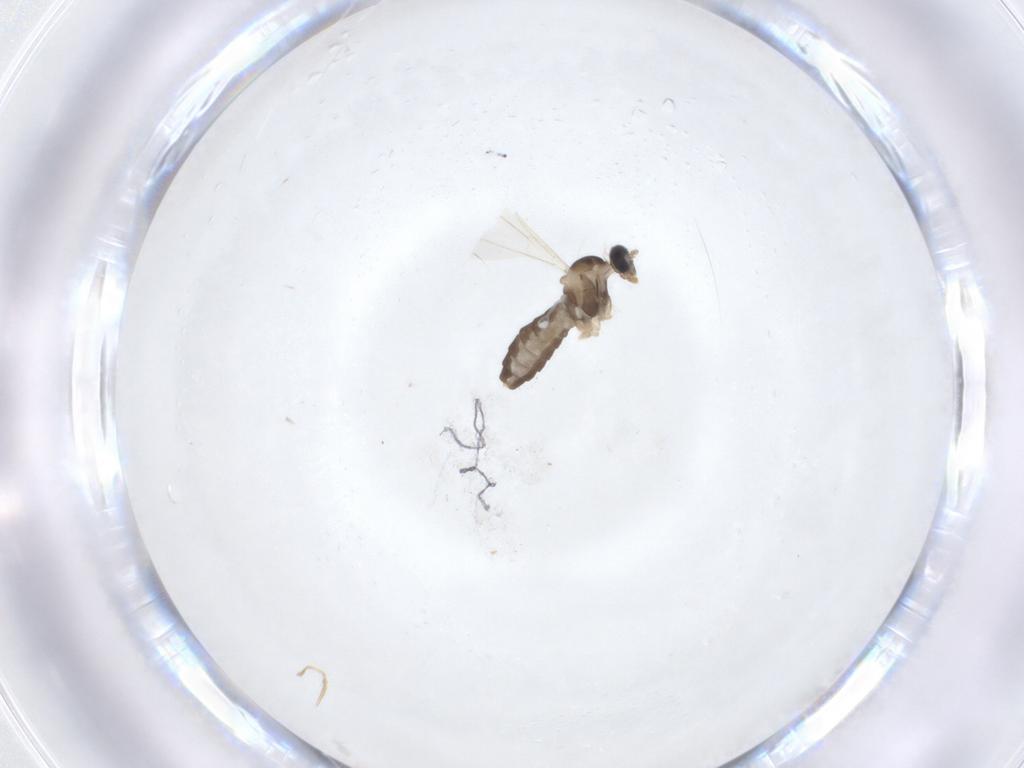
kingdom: Animalia
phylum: Arthropoda
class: Insecta
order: Diptera
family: Cecidomyiidae
